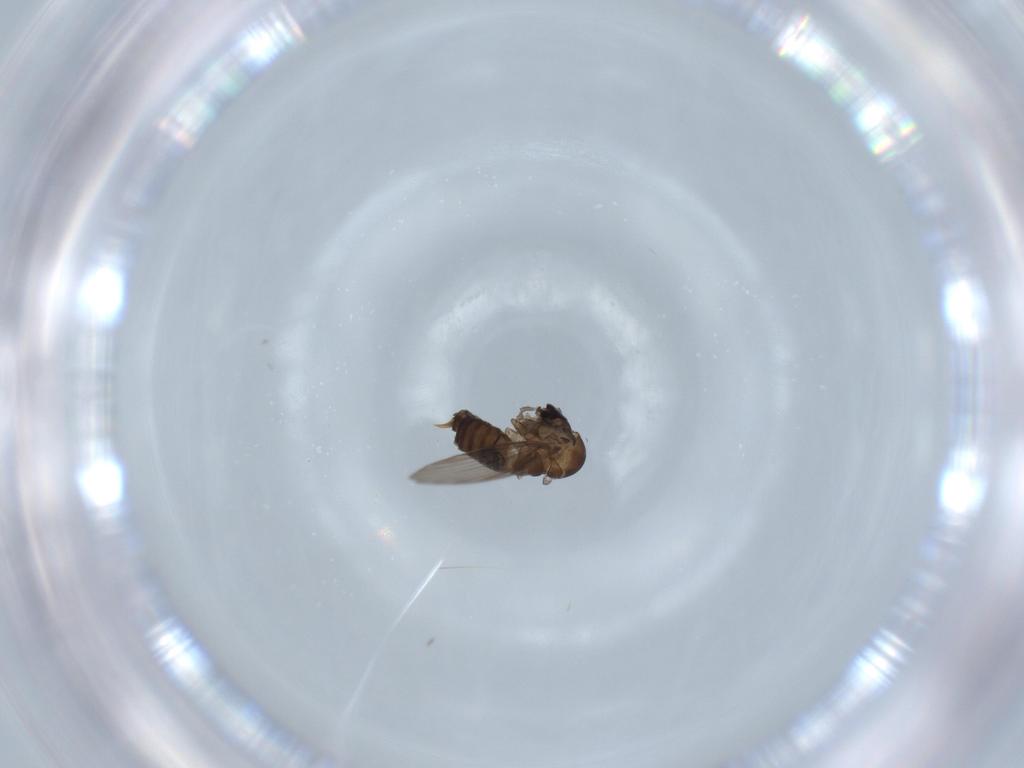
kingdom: Animalia
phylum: Arthropoda
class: Insecta
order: Diptera
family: Psychodidae
